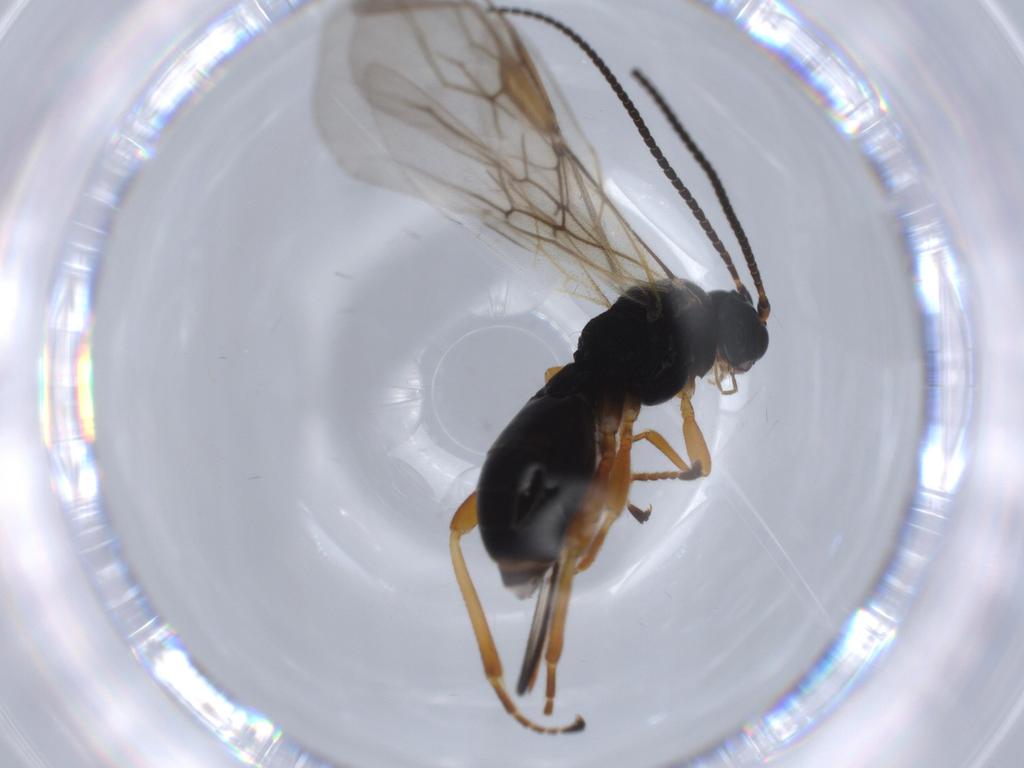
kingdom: Animalia
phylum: Arthropoda
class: Insecta
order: Hymenoptera
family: Braconidae
